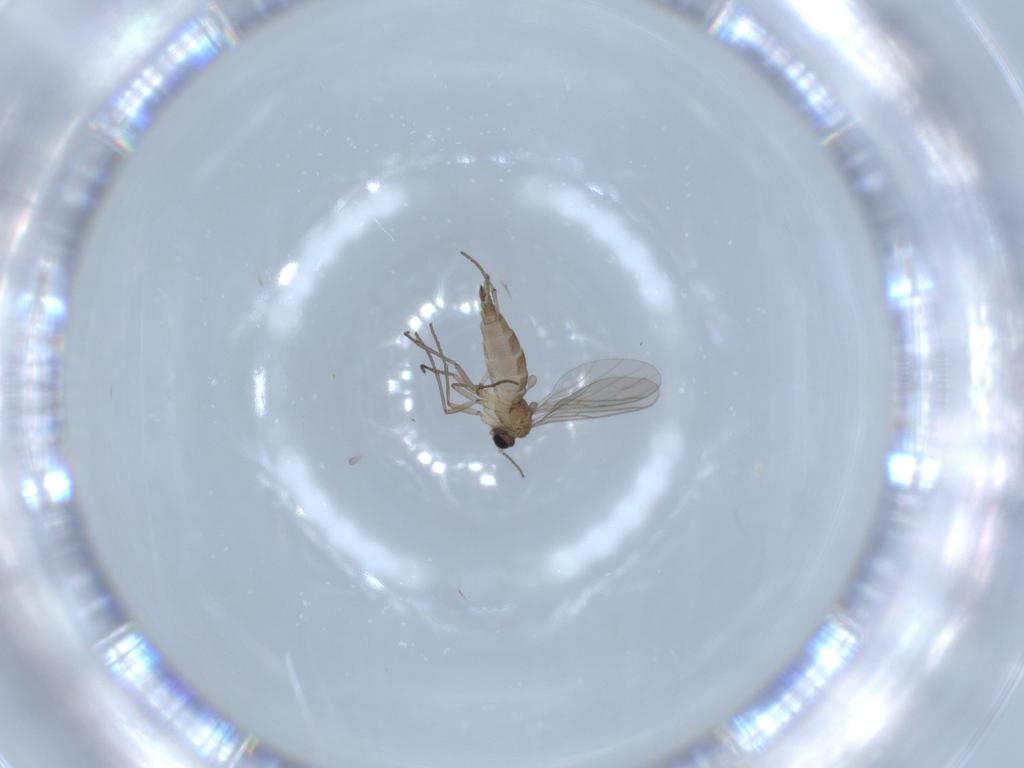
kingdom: Animalia
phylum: Arthropoda
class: Insecta
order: Diptera
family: Sciaridae
